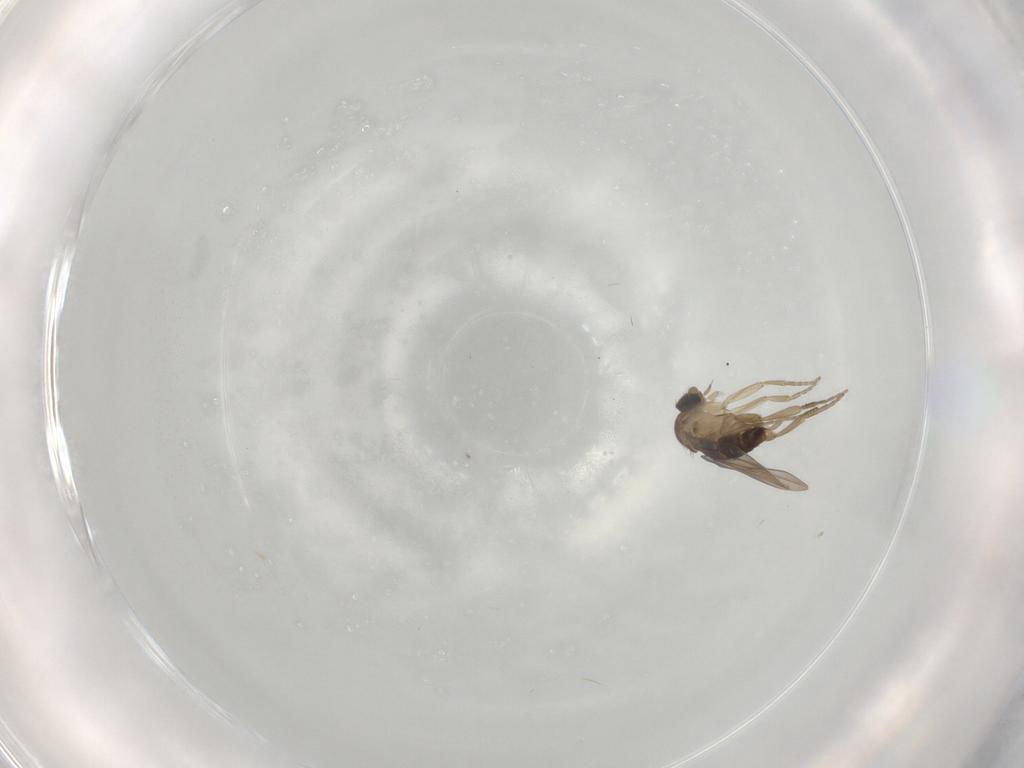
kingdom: Animalia
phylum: Arthropoda
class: Insecta
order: Diptera
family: Phoridae
